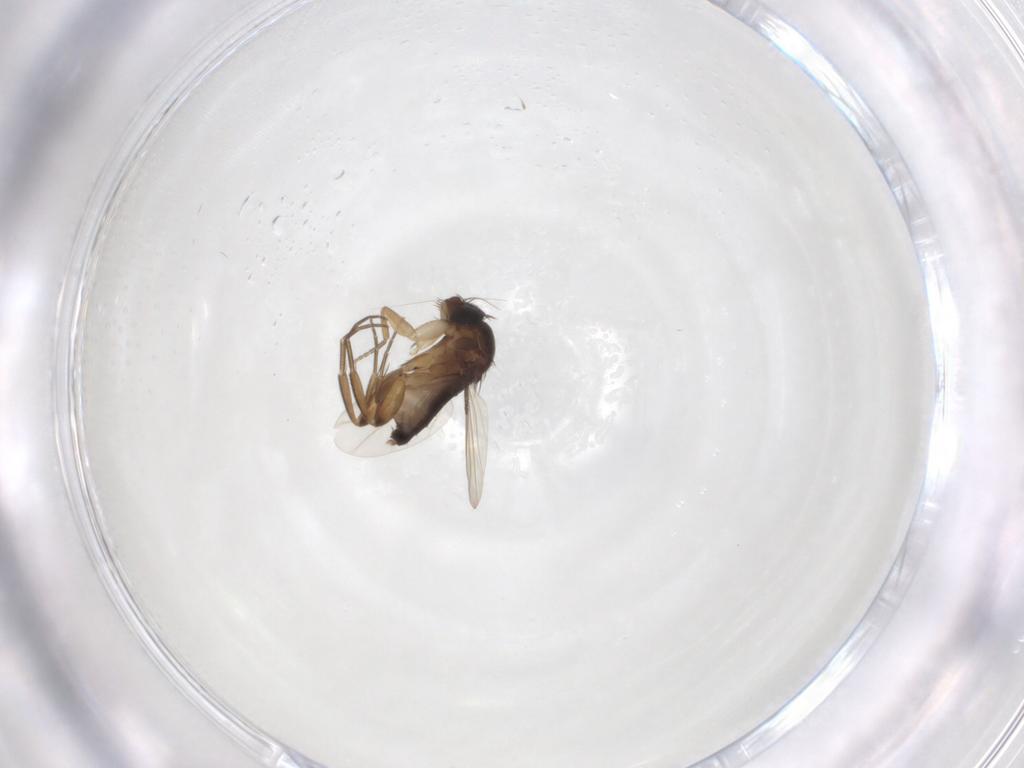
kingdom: Animalia
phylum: Arthropoda
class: Insecta
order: Diptera
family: Phoridae
